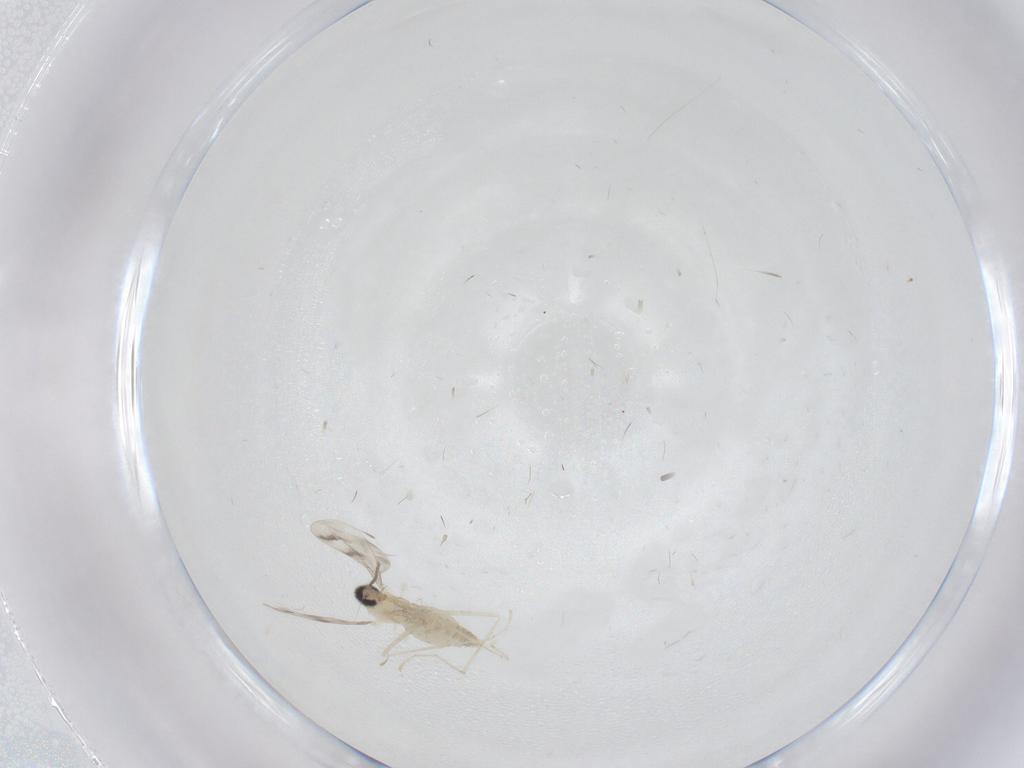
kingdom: Animalia
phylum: Arthropoda
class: Insecta
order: Diptera
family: Cecidomyiidae
